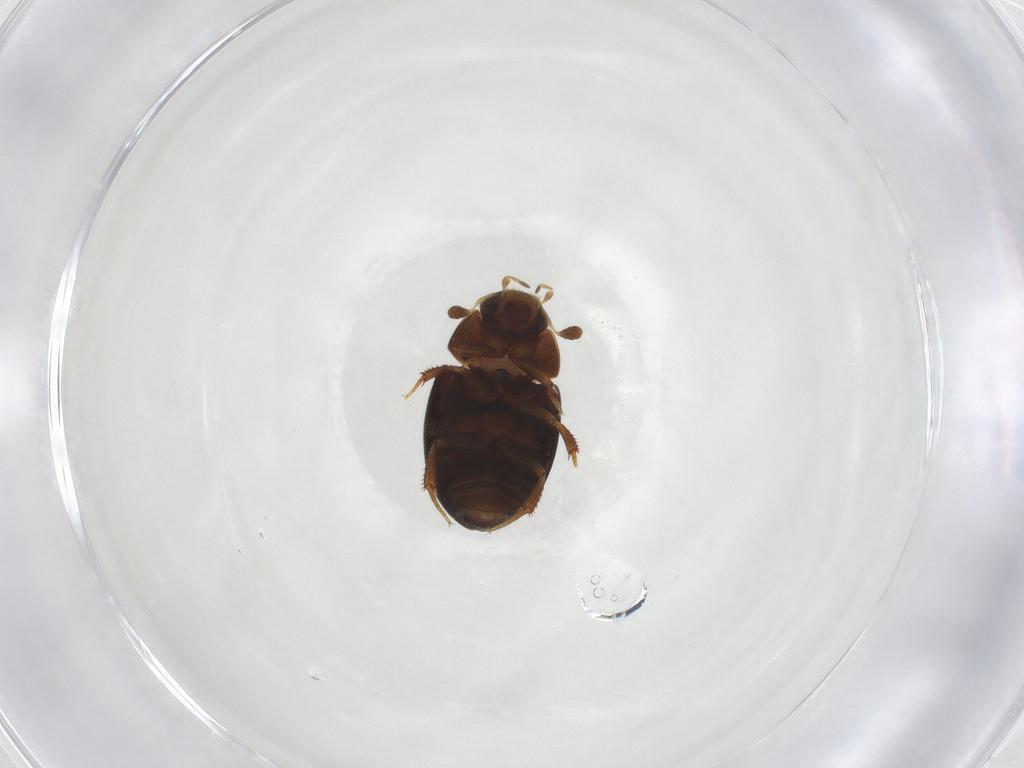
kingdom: Animalia
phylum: Arthropoda
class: Insecta
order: Coleoptera
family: Hydrophilidae
